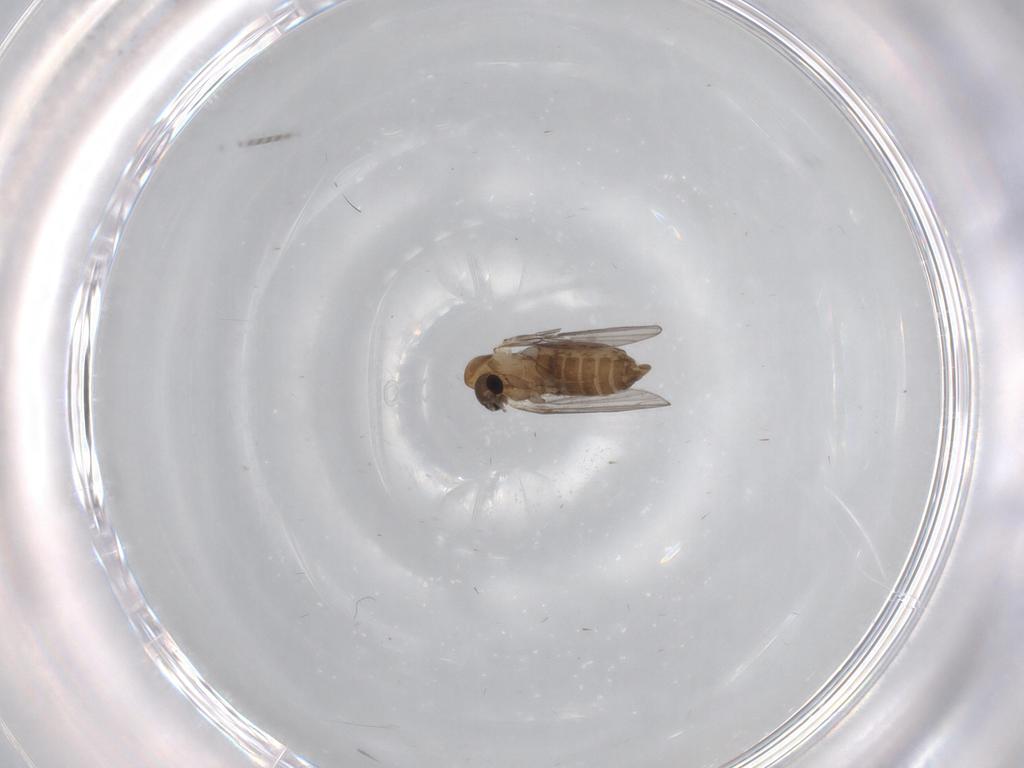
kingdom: Animalia
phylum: Arthropoda
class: Insecta
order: Diptera
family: Psychodidae
